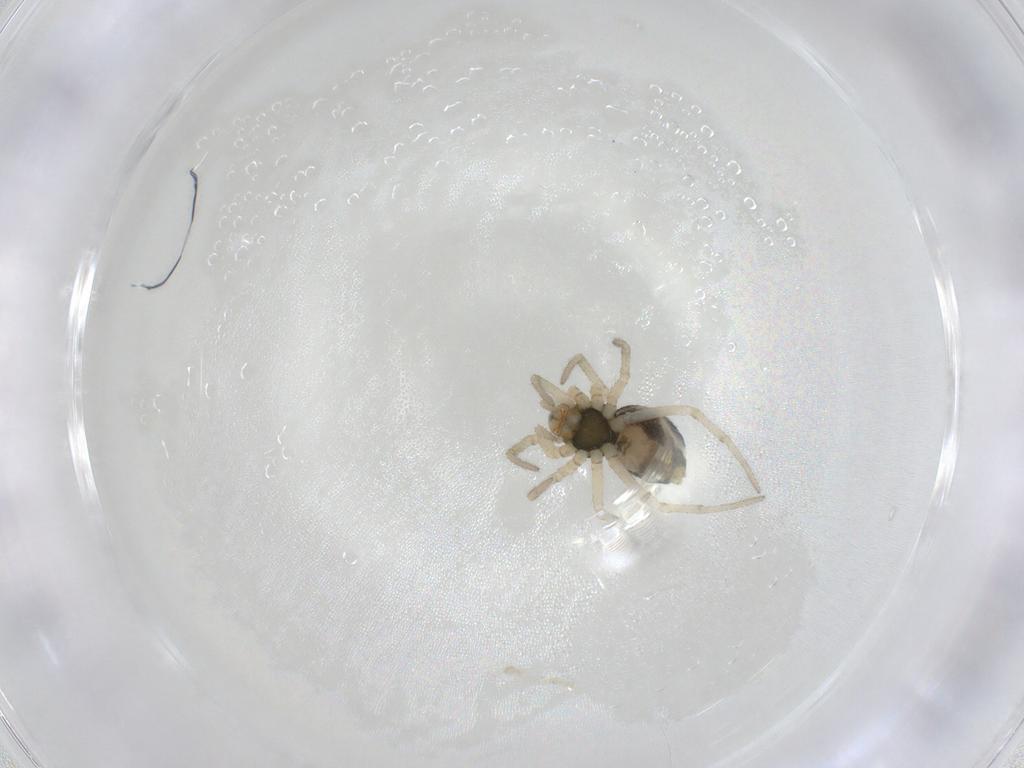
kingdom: Animalia
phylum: Arthropoda
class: Arachnida
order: Araneae
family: Linyphiidae
